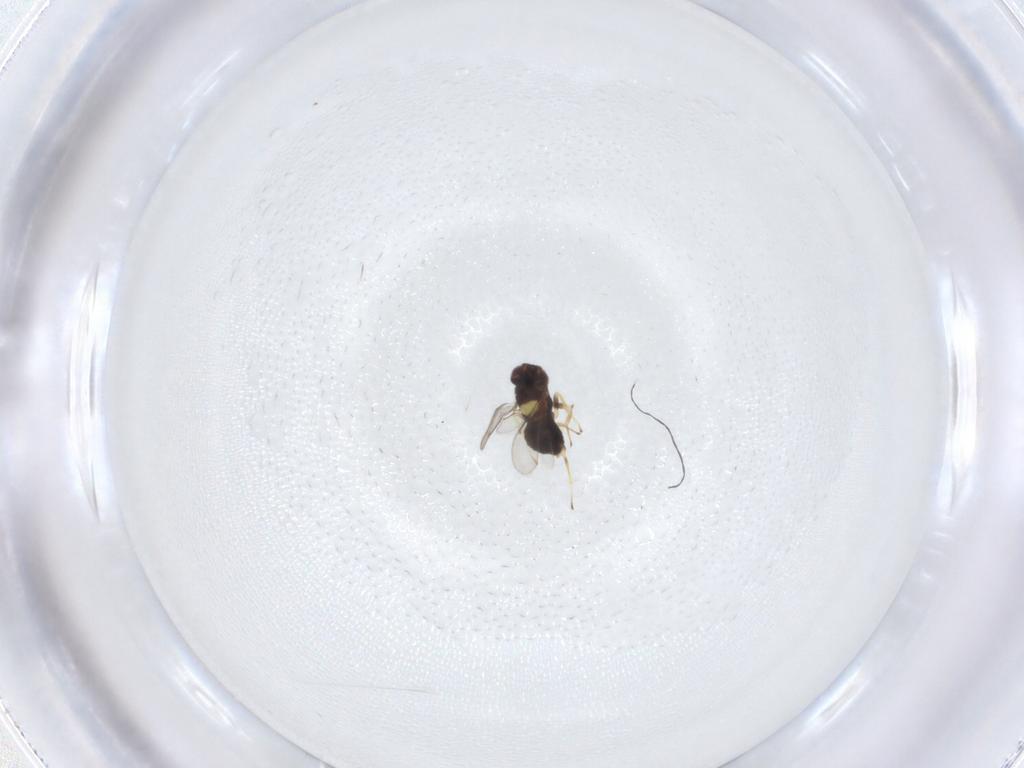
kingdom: Animalia
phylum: Arthropoda
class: Insecta
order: Hymenoptera
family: Aphelinidae
